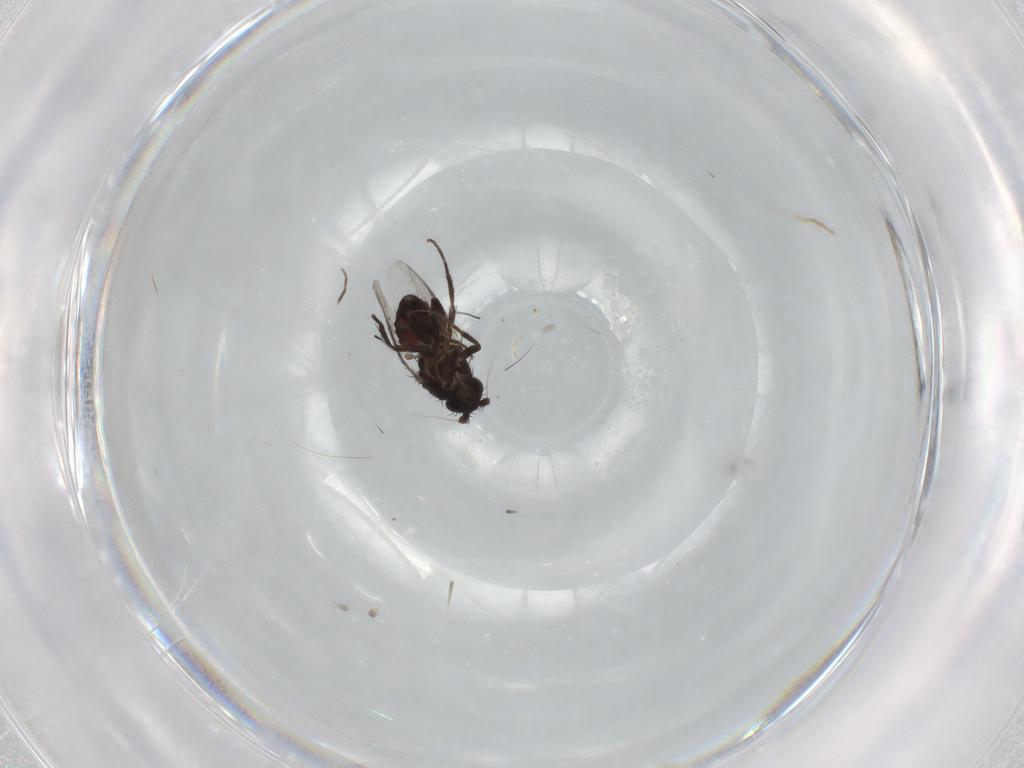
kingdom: Animalia
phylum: Arthropoda
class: Insecta
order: Diptera
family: Sphaeroceridae
